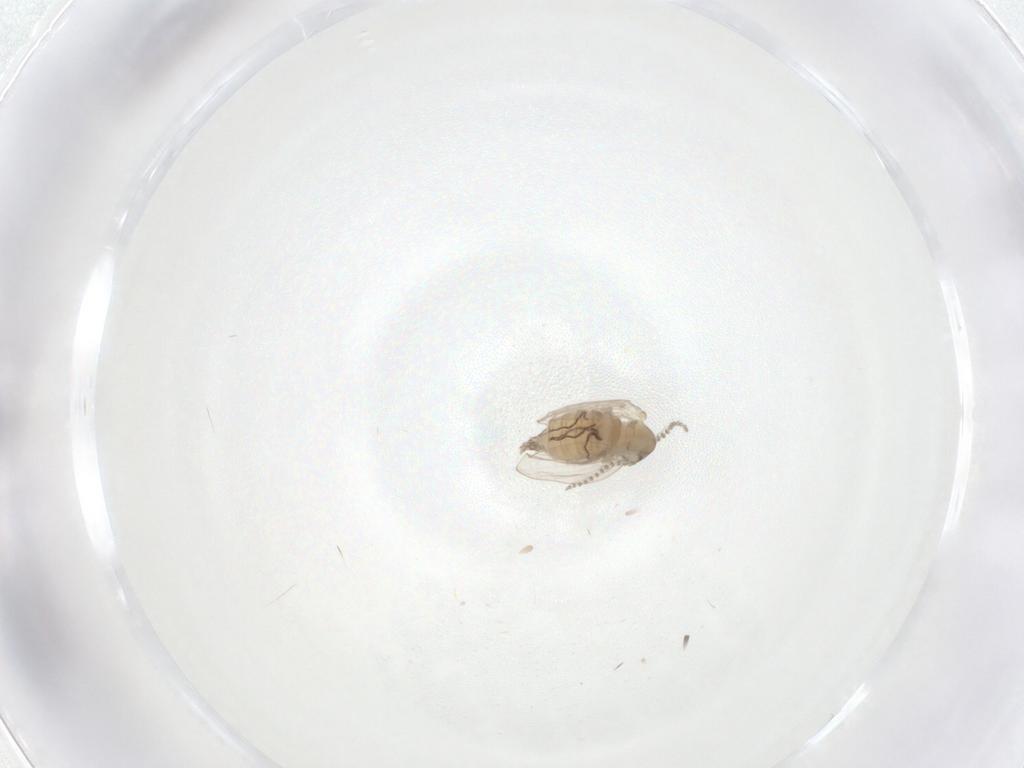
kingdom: Animalia
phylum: Arthropoda
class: Insecta
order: Diptera
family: Psychodidae
